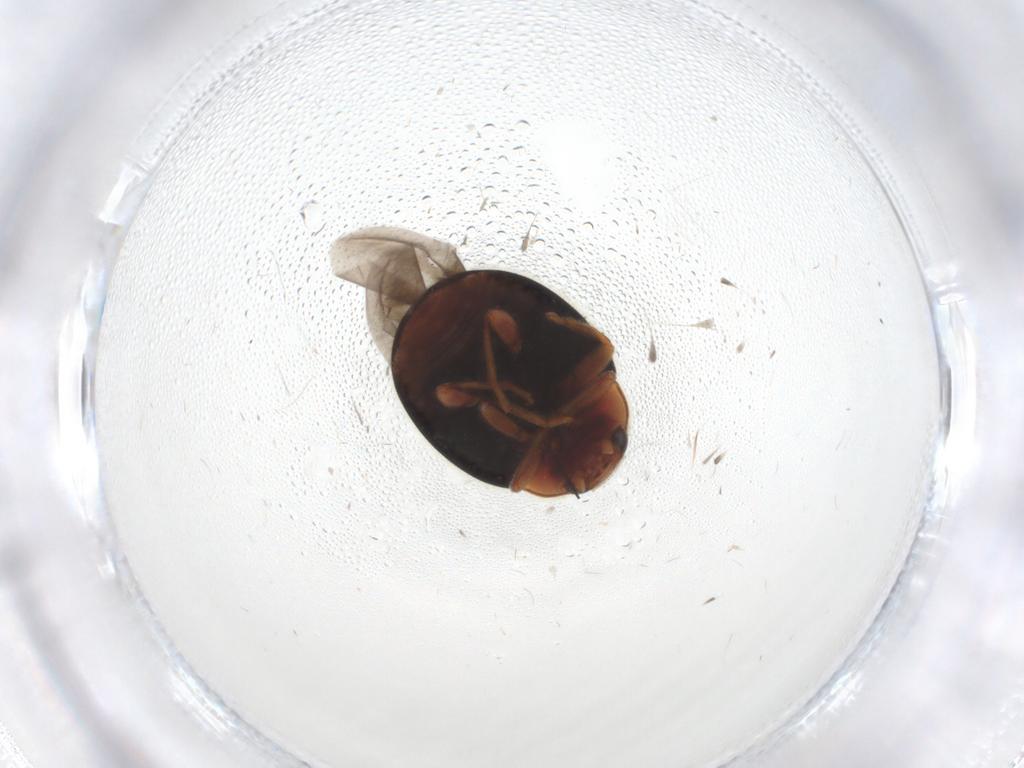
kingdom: Animalia
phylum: Arthropoda
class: Insecta
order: Coleoptera
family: Coccinellidae
